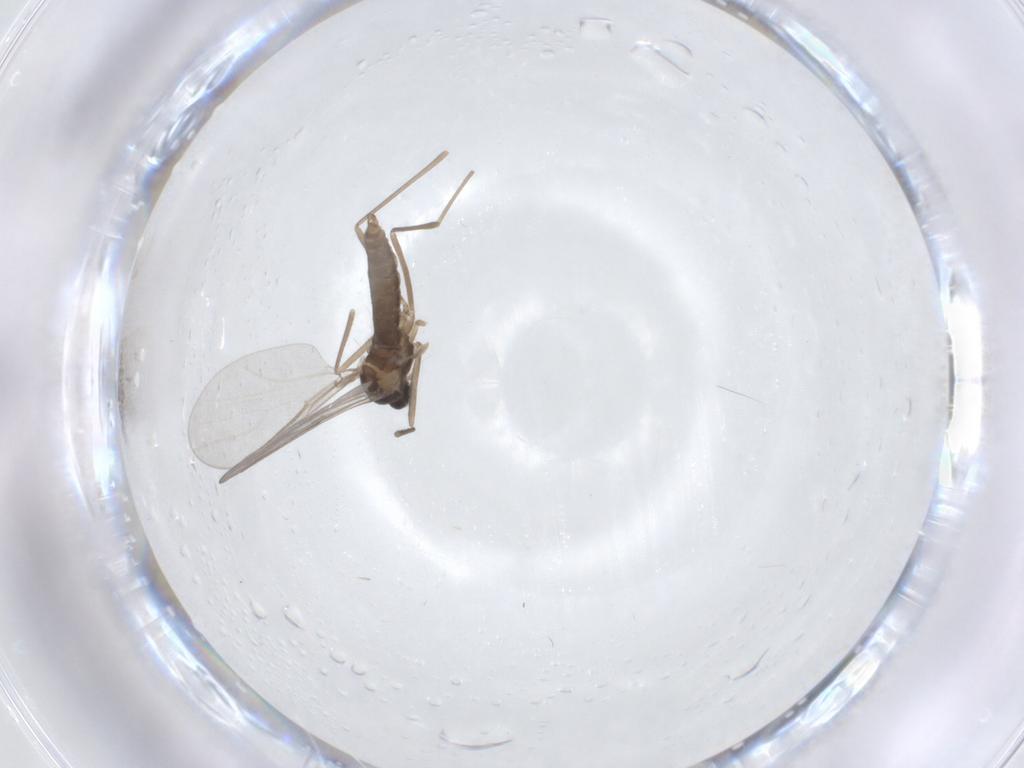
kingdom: Animalia
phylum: Arthropoda
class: Insecta
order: Diptera
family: Cecidomyiidae
